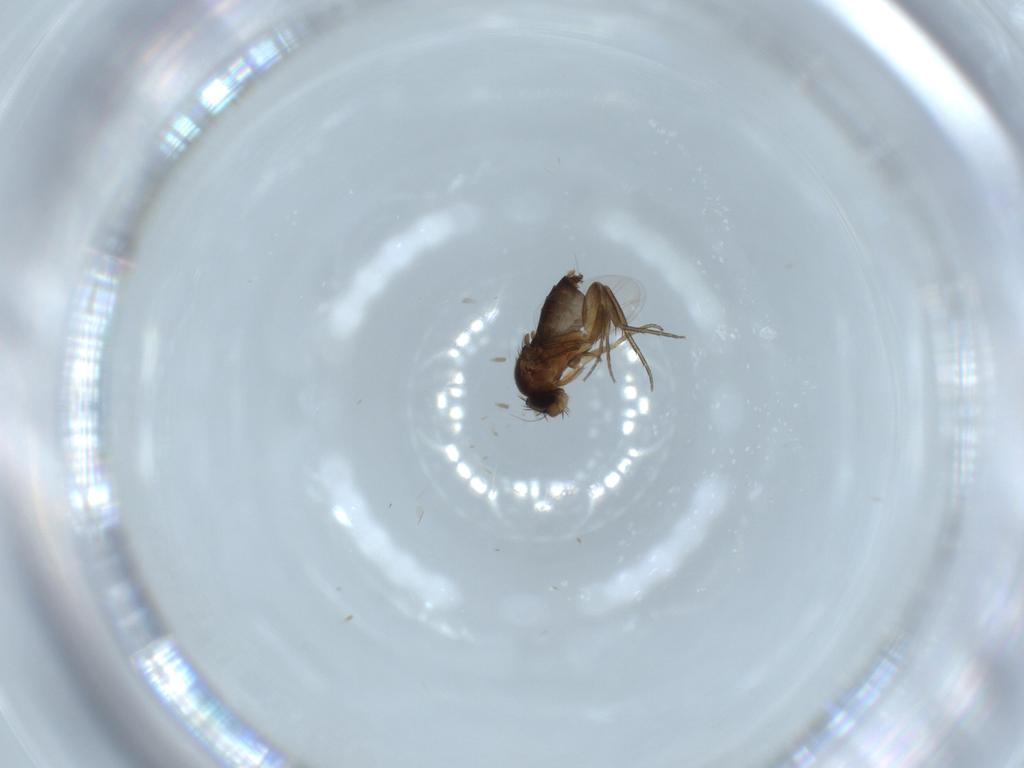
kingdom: Animalia
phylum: Arthropoda
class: Insecta
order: Diptera
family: Phoridae
